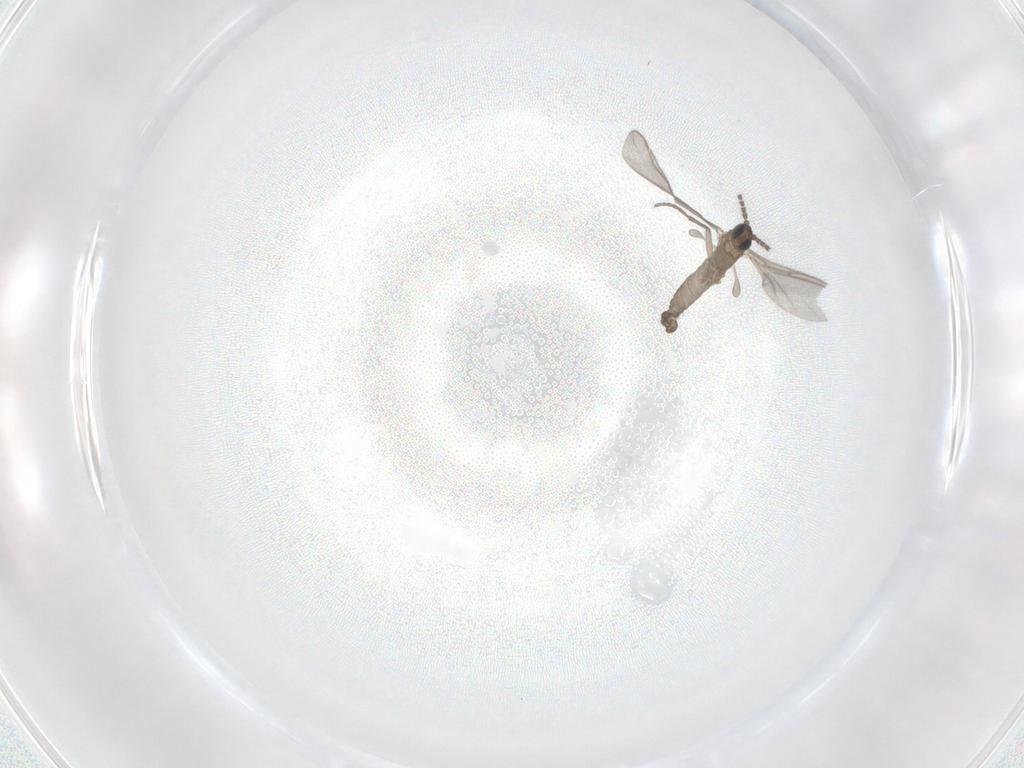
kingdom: Animalia
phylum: Arthropoda
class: Insecta
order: Diptera
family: Sciaridae
